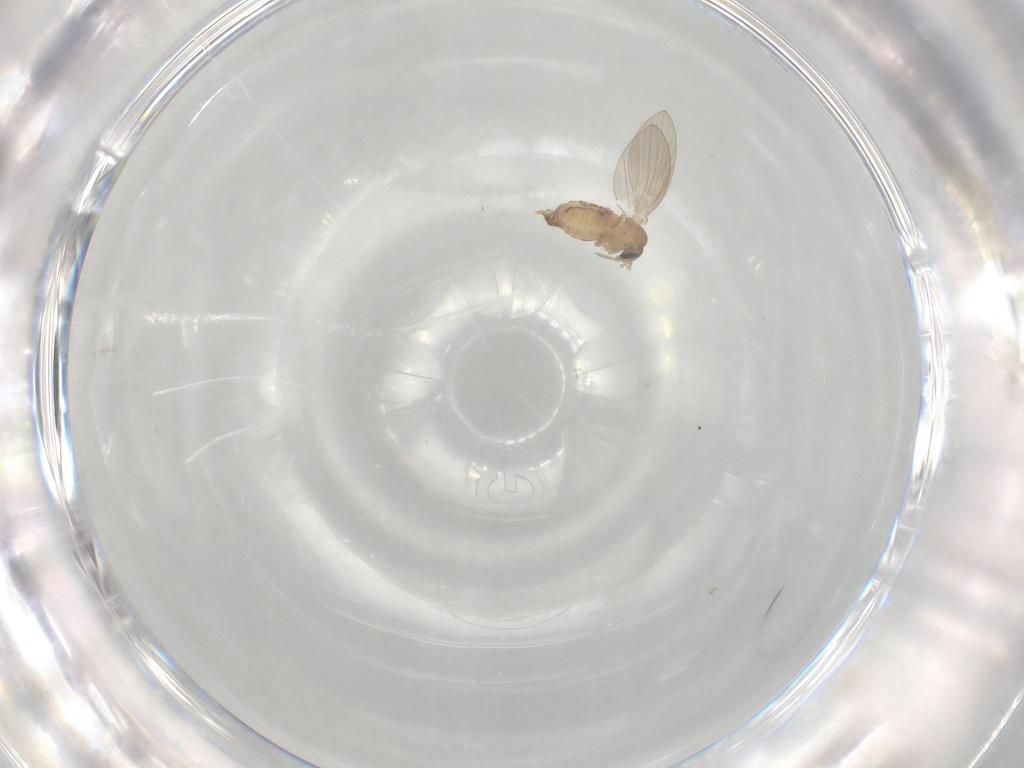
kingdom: Animalia
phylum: Arthropoda
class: Insecta
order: Diptera
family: Psychodidae
